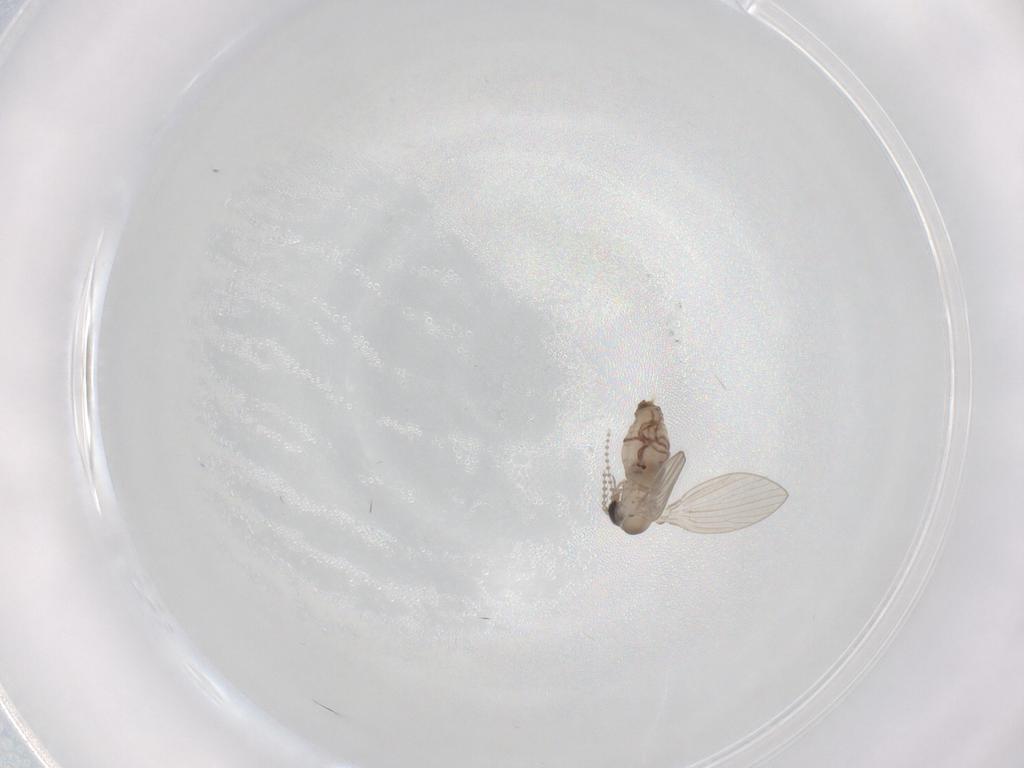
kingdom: Animalia
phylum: Arthropoda
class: Insecta
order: Diptera
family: Psychodidae
